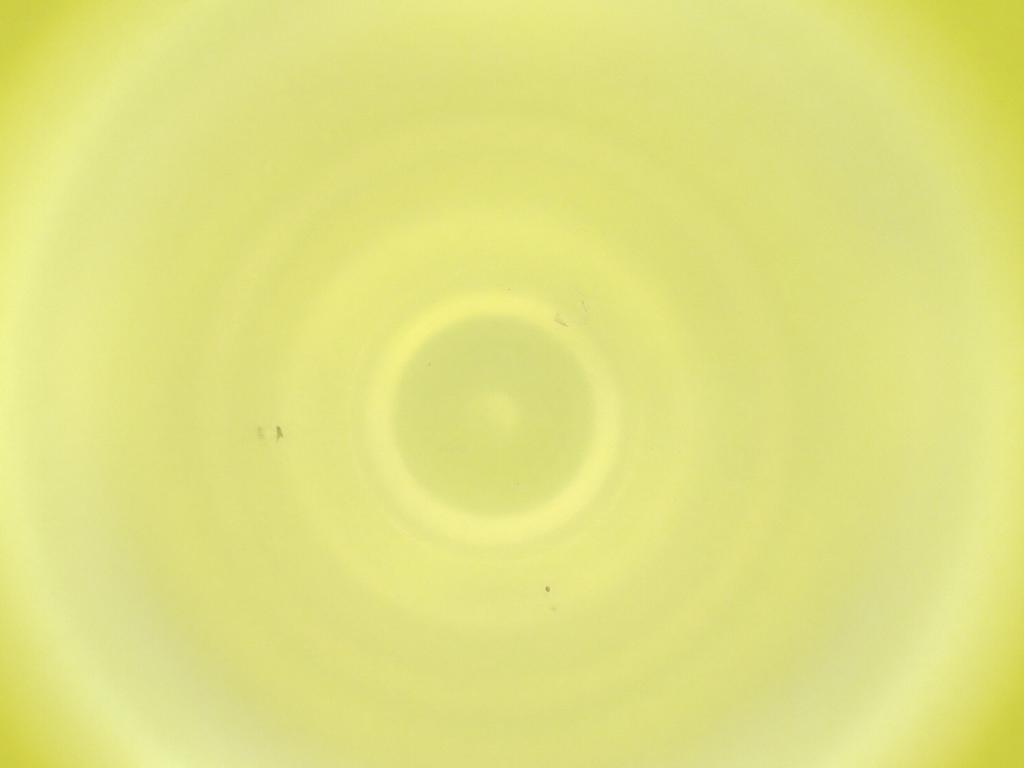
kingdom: Animalia
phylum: Arthropoda
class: Insecta
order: Diptera
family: Cecidomyiidae
